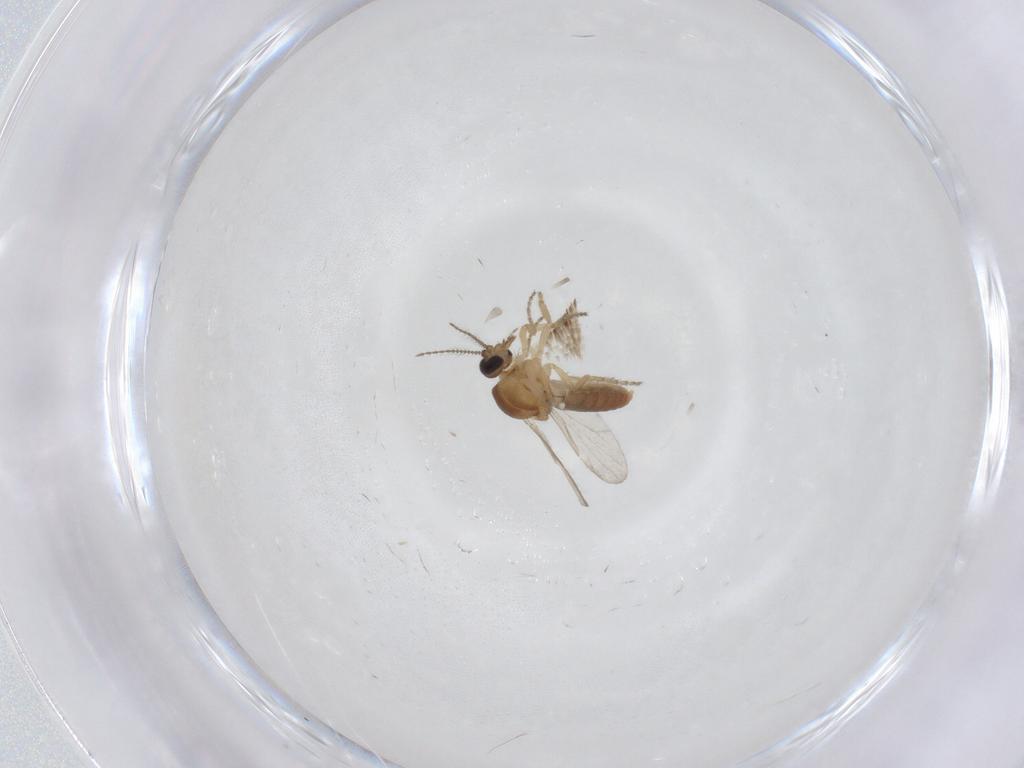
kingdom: Animalia
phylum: Arthropoda
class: Insecta
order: Diptera
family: Ceratopogonidae
